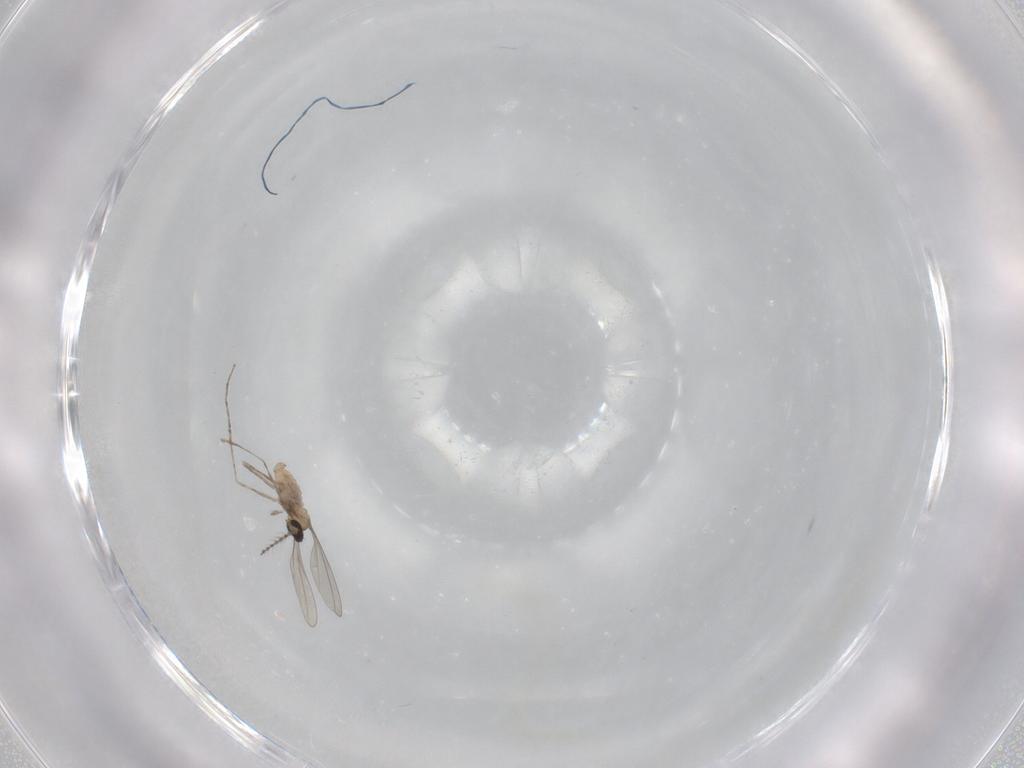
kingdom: Animalia
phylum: Arthropoda
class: Insecta
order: Diptera
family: Cecidomyiidae
